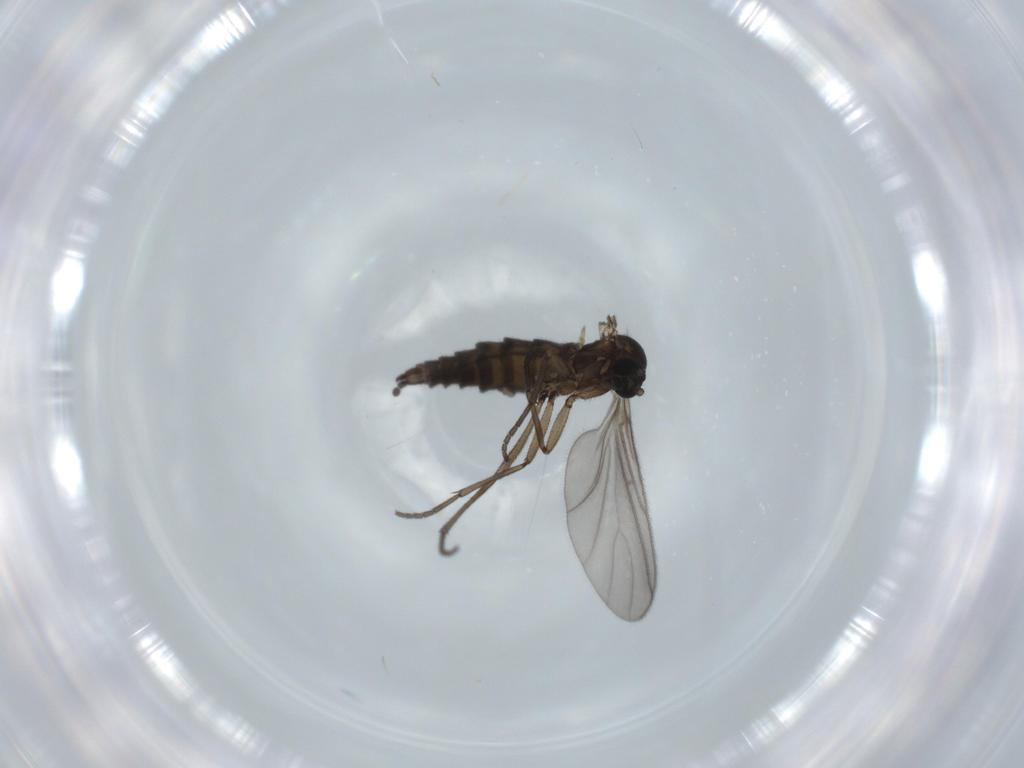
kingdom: Animalia
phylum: Arthropoda
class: Insecta
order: Diptera
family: Sciaridae
